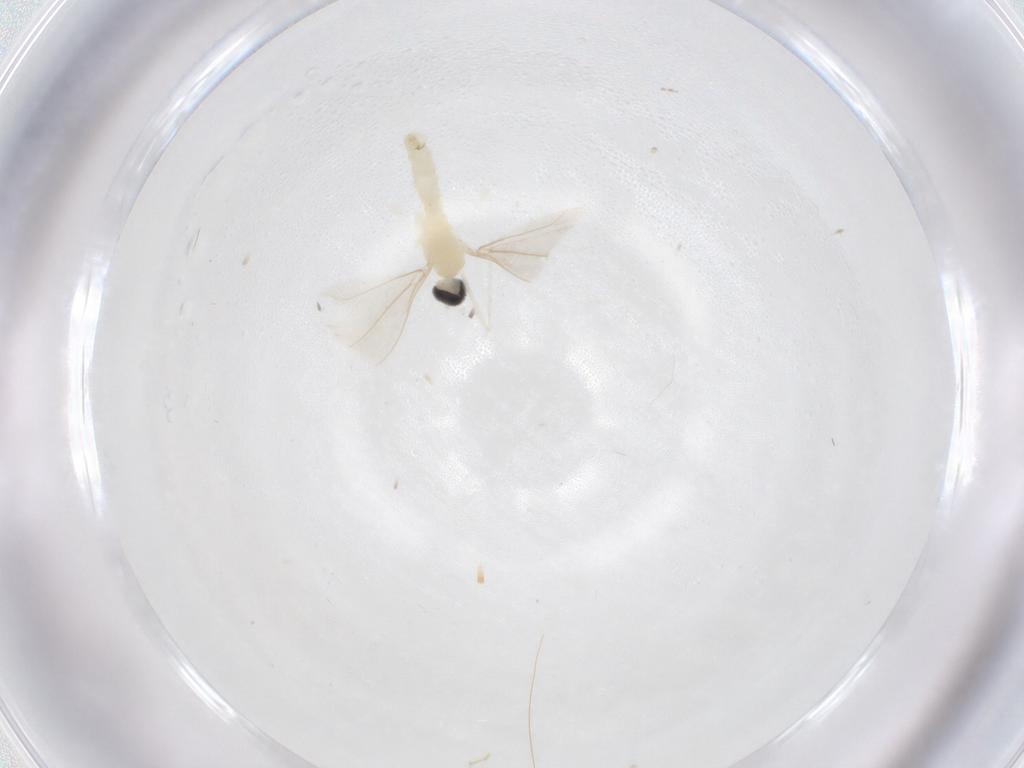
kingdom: Animalia
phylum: Arthropoda
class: Insecta
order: Diptera
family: Cecidomyiidae
